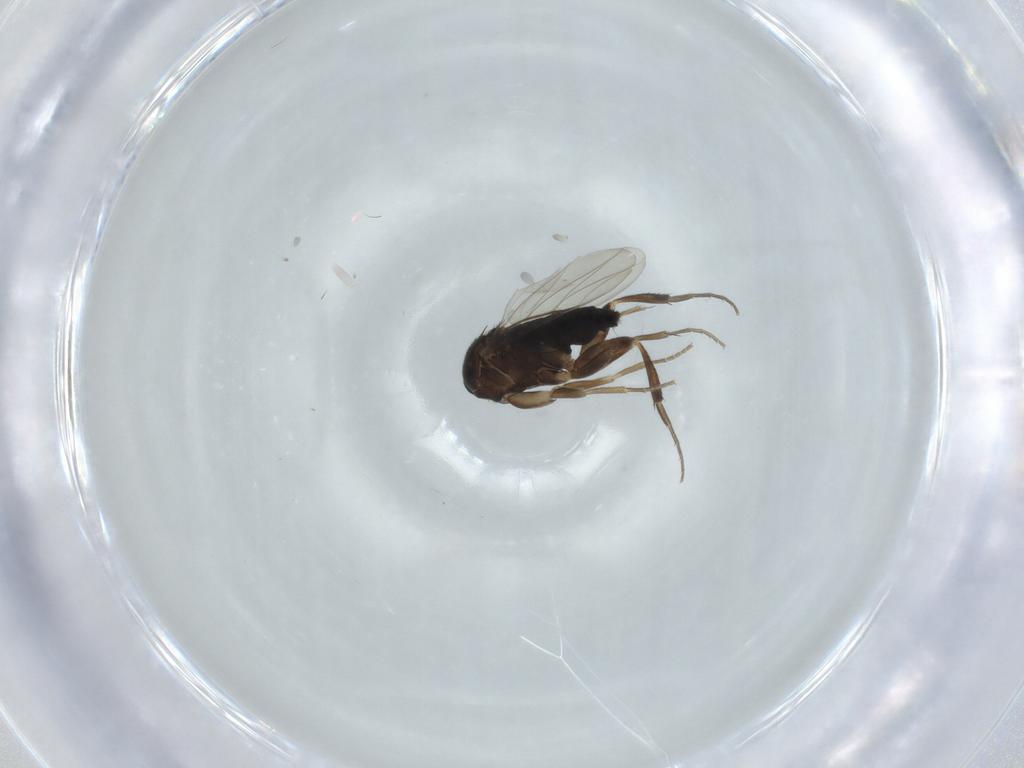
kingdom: Animalia
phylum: Arthropoda
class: Insecta
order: Diptera
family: Phoridae
